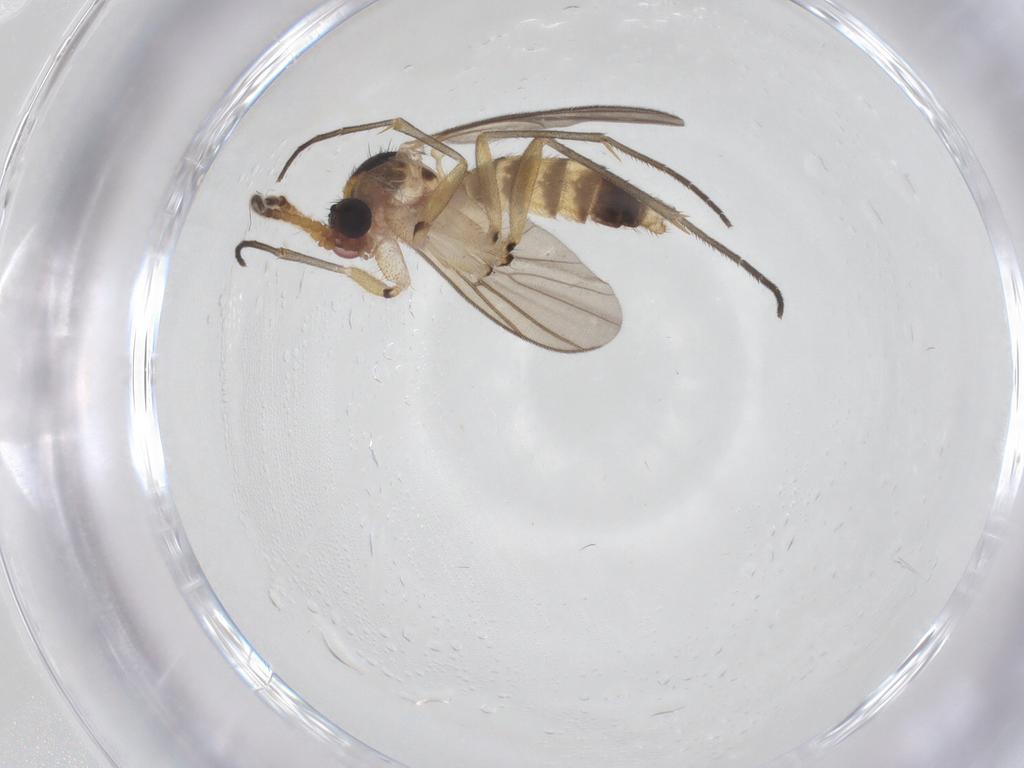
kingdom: Animalia
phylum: Arthropoda
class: Insecta
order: Diptera
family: Mycetophilidae
